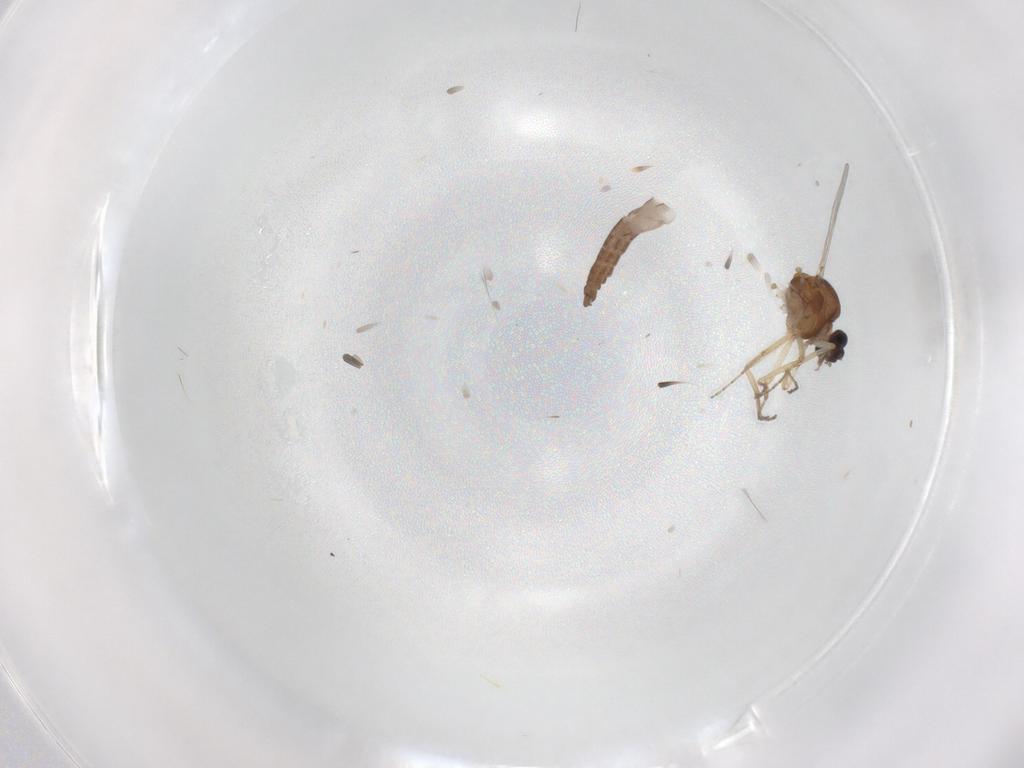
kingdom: Animalia
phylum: Arthropoda
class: Insecta
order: Diptera
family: Ceratopogonidae
